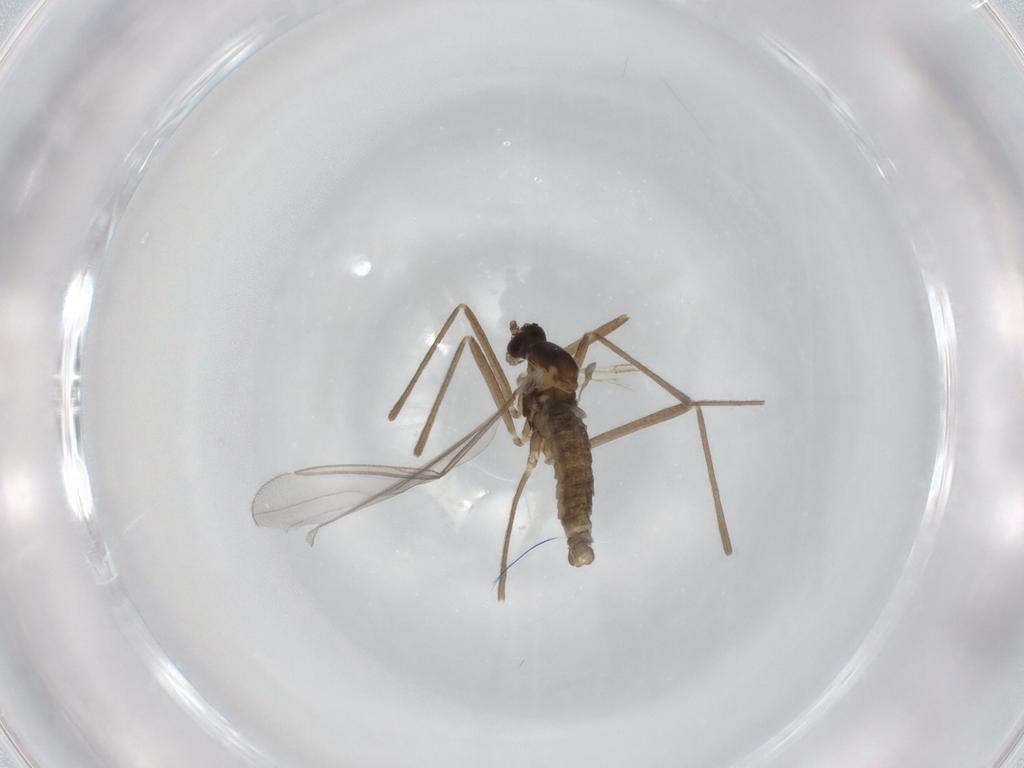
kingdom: Animalia
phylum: Arthropoda
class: Insecta
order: Diptera
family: Cecidomyiidae
